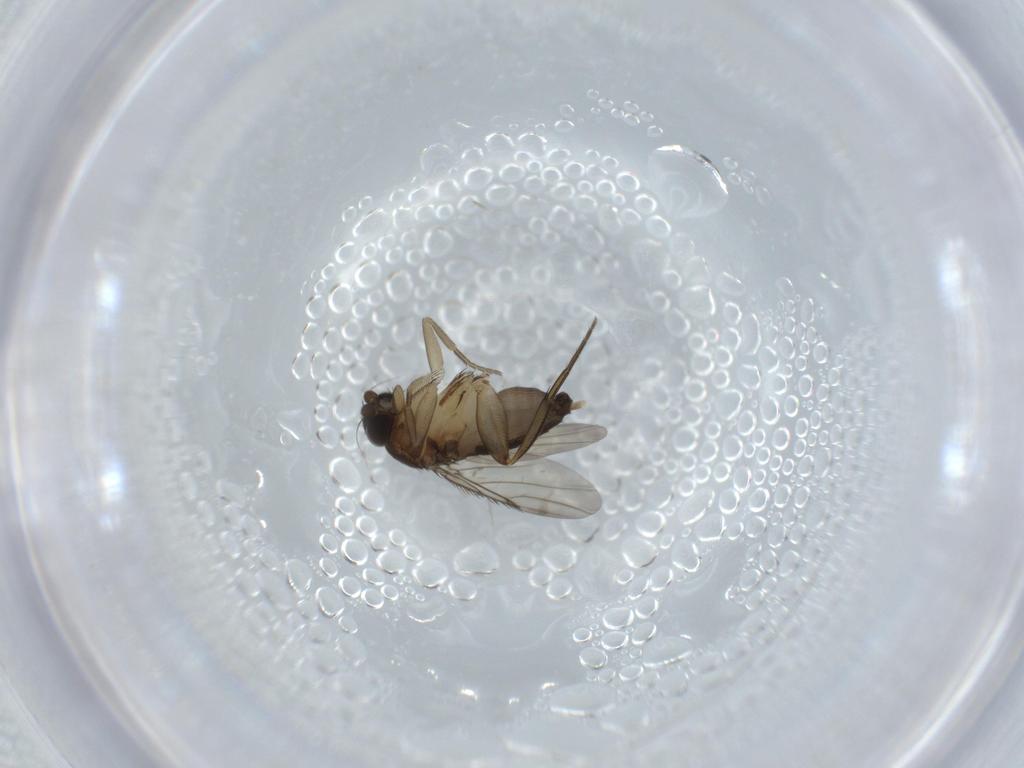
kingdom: Animalia
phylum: Arthropoda
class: Insecta
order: Diptera
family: Phoridae
